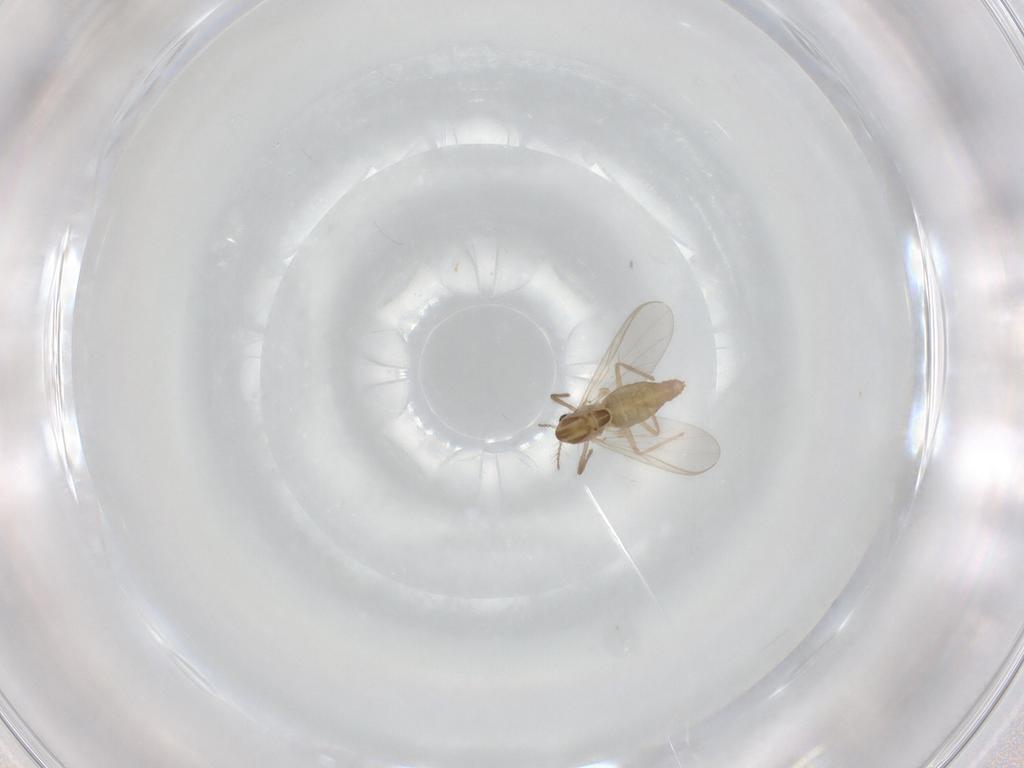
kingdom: Animalia
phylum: Arthropoda
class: Insecta
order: Diptera
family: Chironomidae
